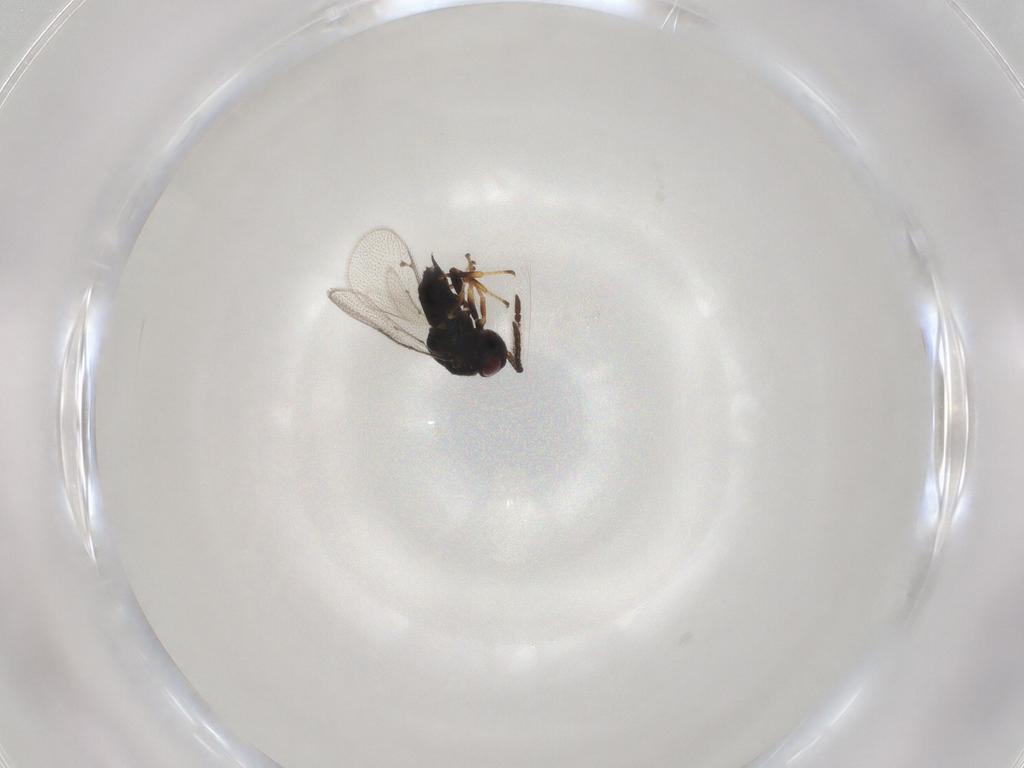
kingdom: Animalia
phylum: Arthropoda
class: Insecta
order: Hymenoptera
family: Pteromalidae
